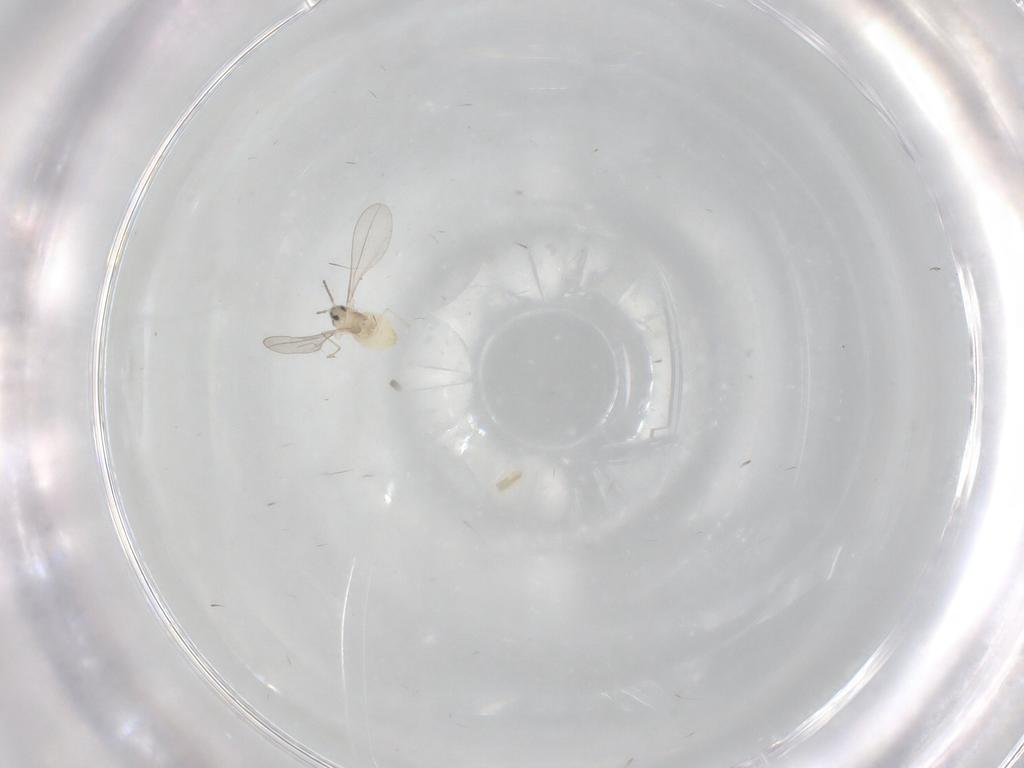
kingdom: Animalia
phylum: Arthropoda
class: Insecta
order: Diptera
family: Cecidomyiidae
